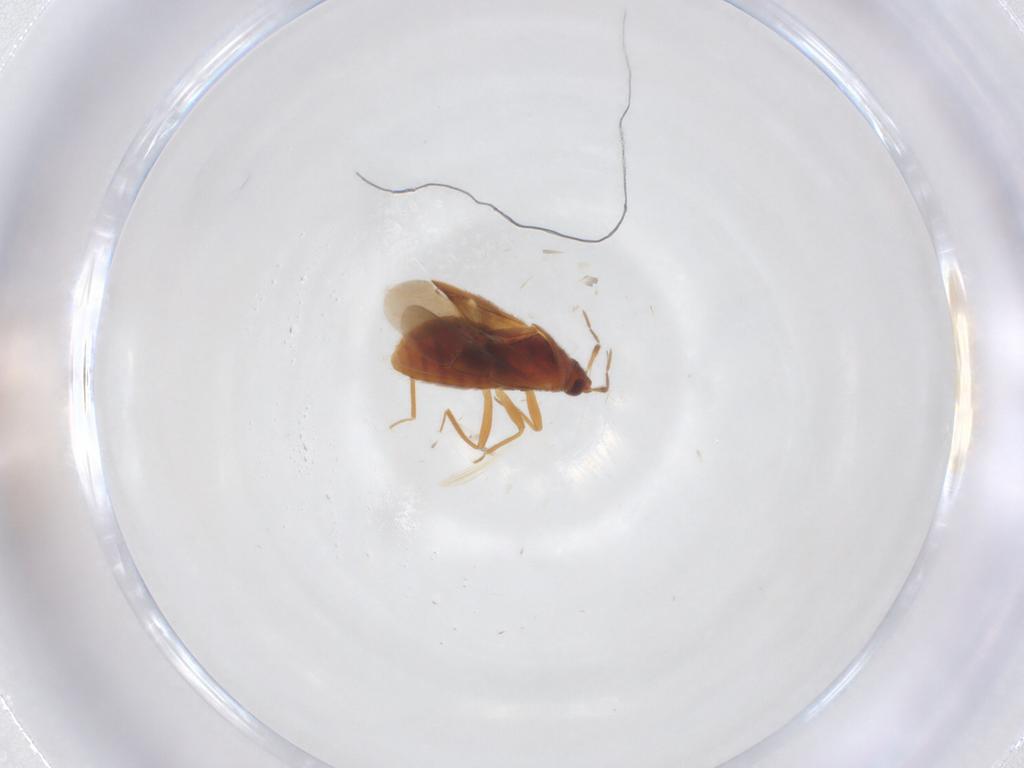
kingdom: Animalia
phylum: Arthropoda
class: Insecta
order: Hemiptera
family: Anthocoridae
